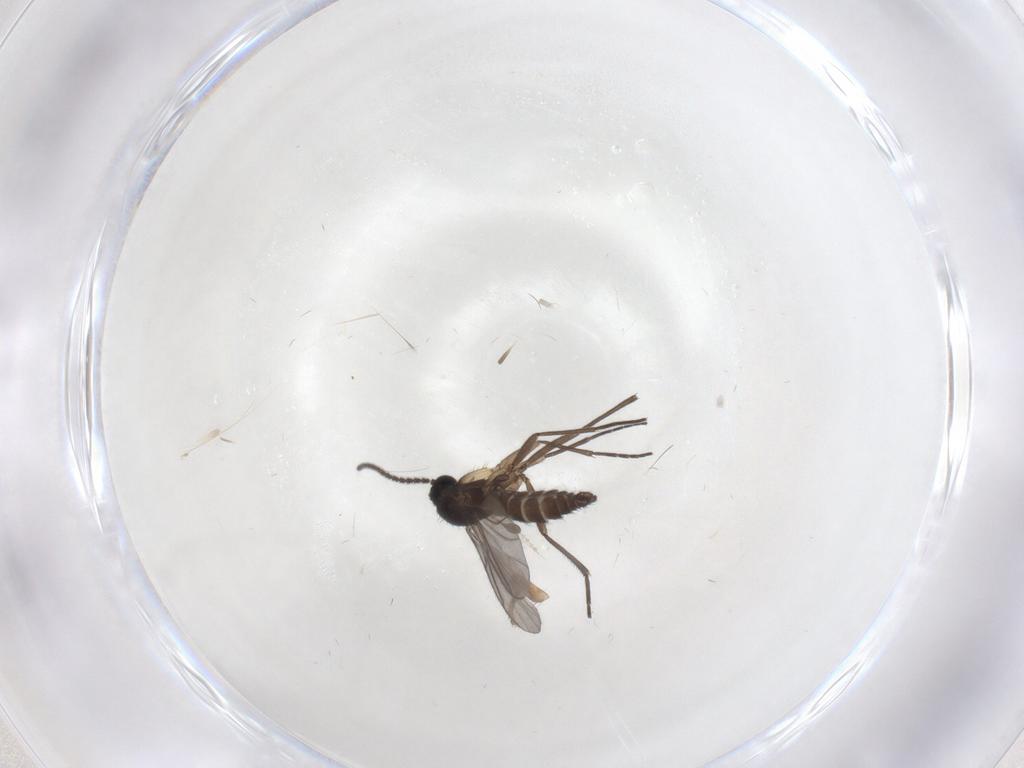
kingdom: Animalia
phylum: Arthropoda
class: Insecta
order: Diptera
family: Drosophilidae
